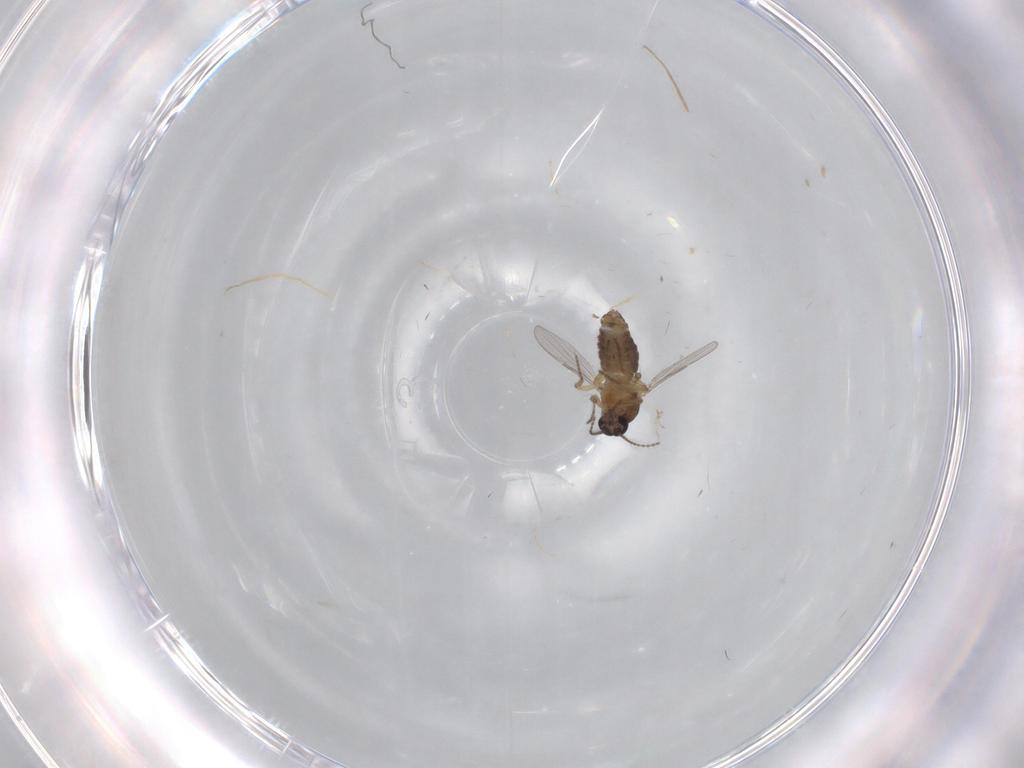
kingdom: Animalia
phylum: Arthropoda
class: Insecta
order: Diptera
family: Ceratopogonidae
